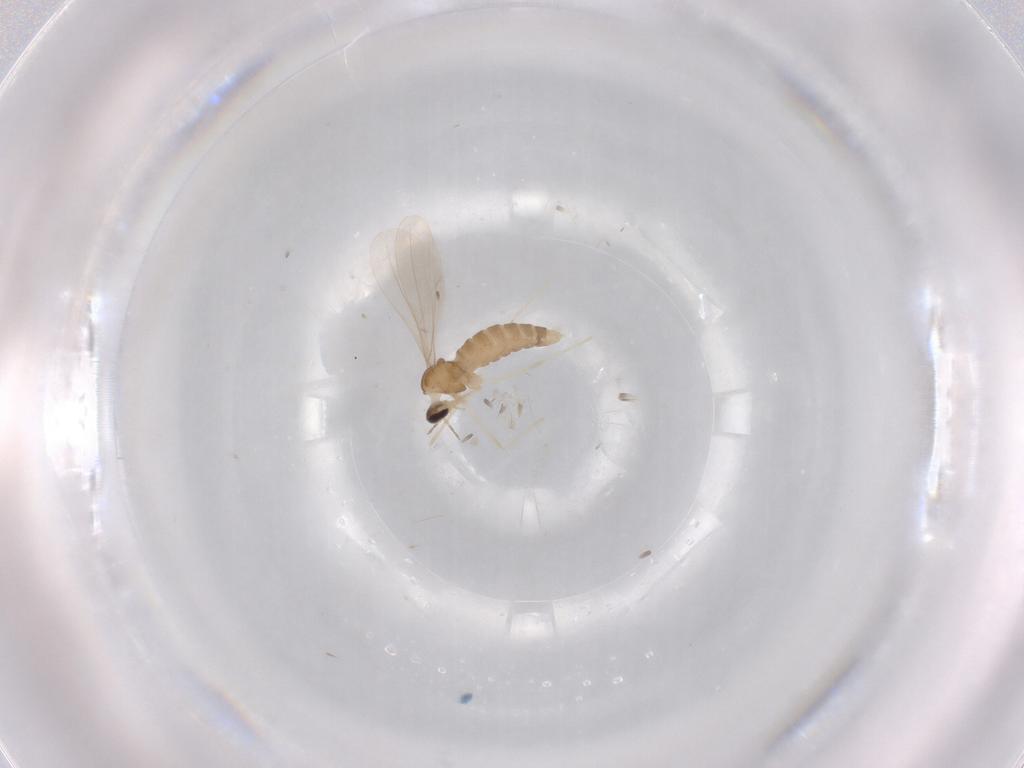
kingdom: Animalia
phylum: Arthropoda
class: Insecta
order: Diptera
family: Cecidomyiidae
